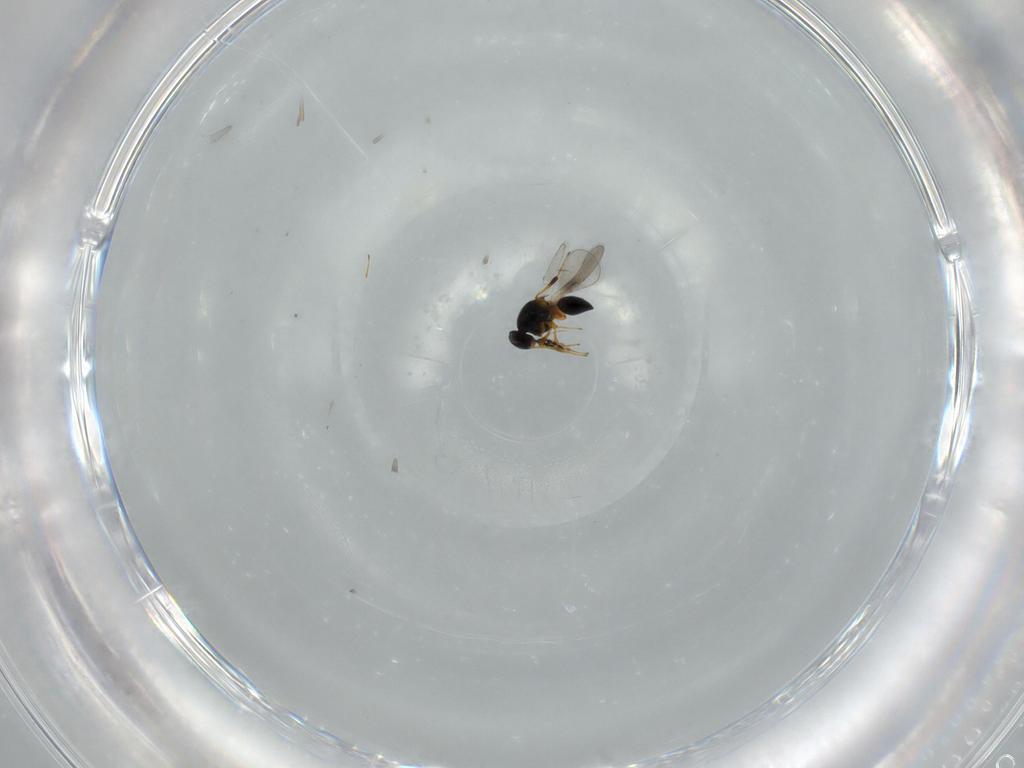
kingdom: Animalia
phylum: Arthropoda
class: Insecta
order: Hymenoptera
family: Platygastridae
